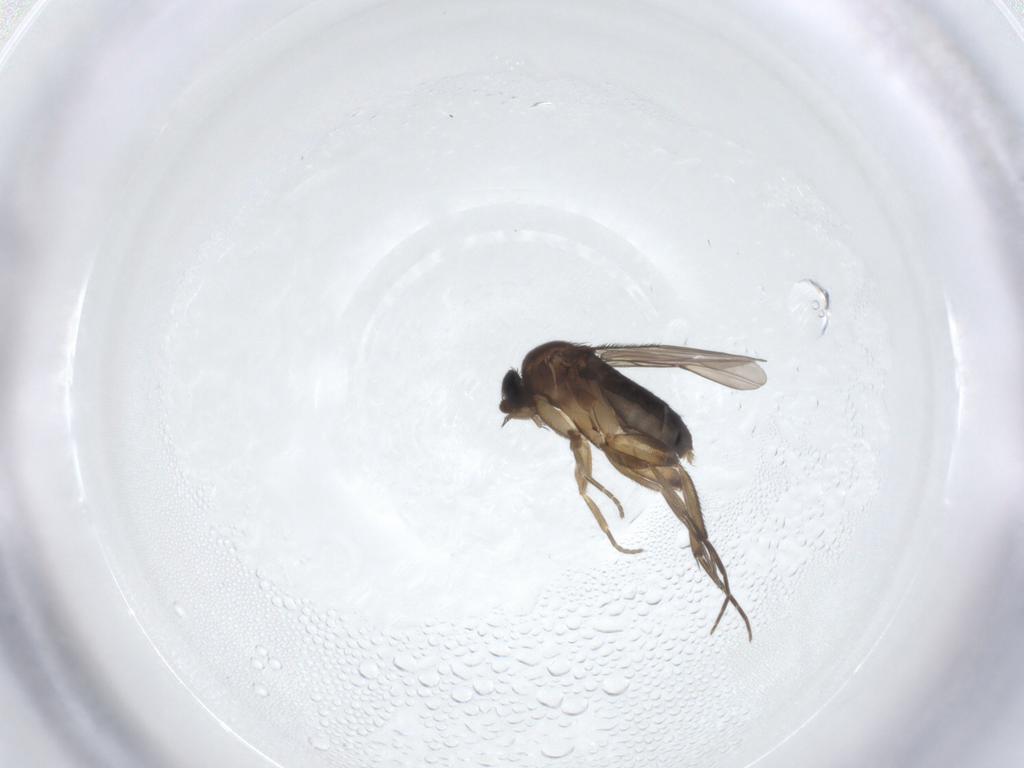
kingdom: Animalia
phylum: Arthropoda
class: Insecta
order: Diptera
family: Phoridae
